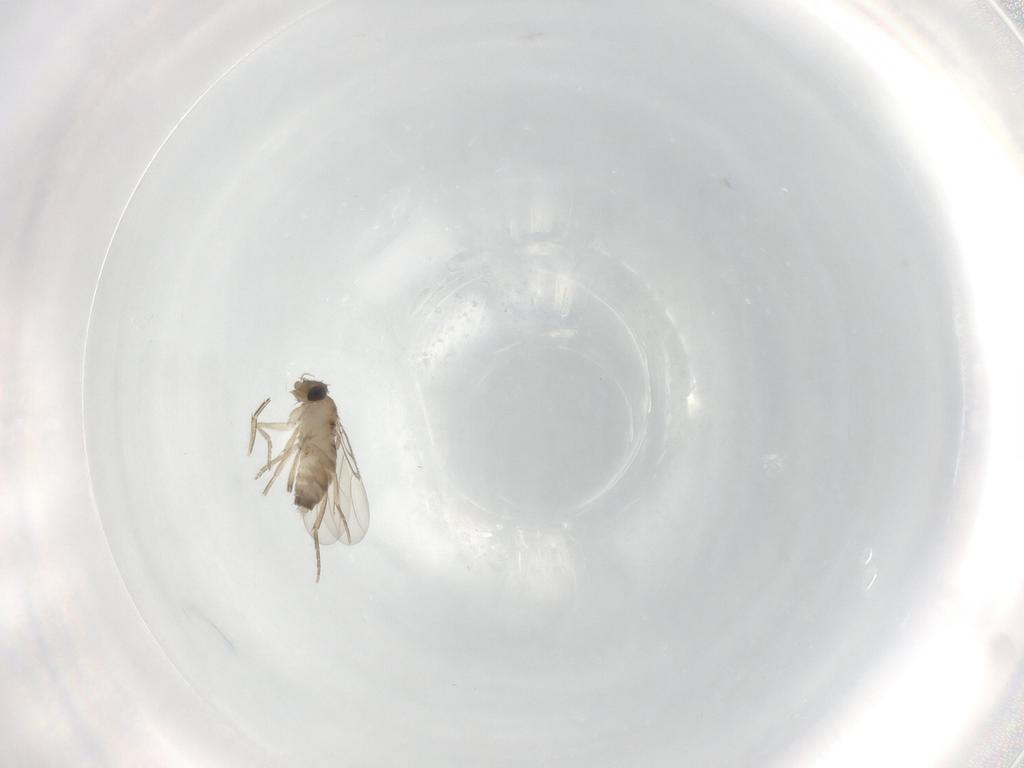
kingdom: Animalia
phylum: Arthropoda
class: Insecta
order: Diptera
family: Phoridae
